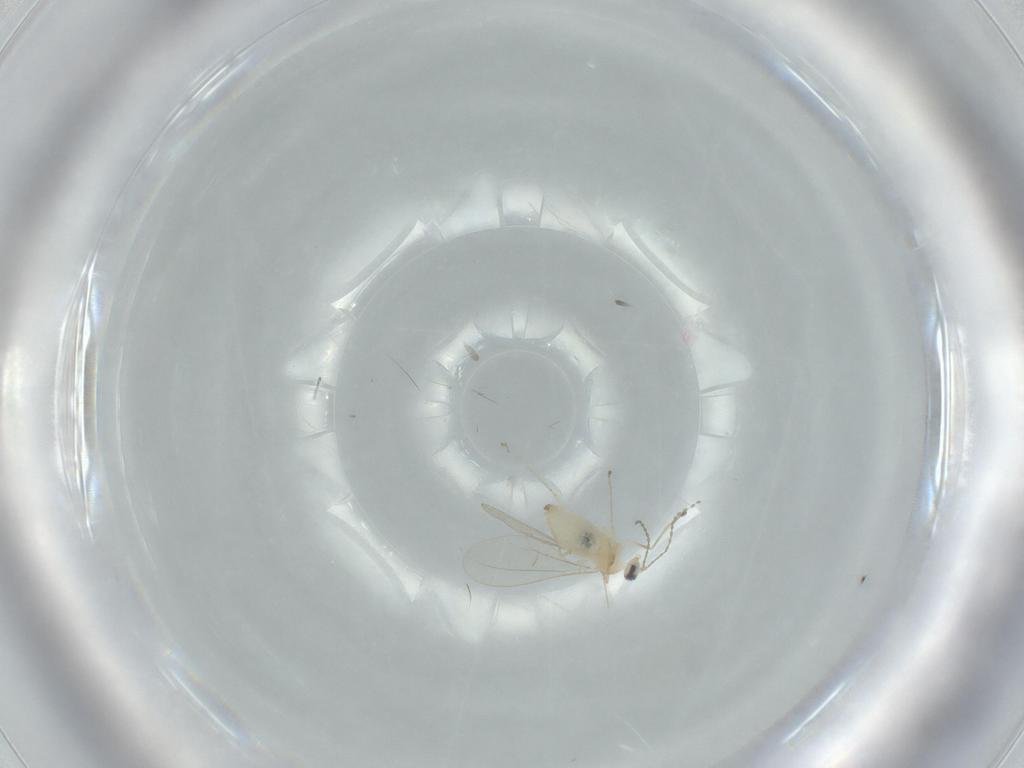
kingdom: Animalia
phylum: Arthropoda
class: Insecta
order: Diptera
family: Cecidomyiidae
